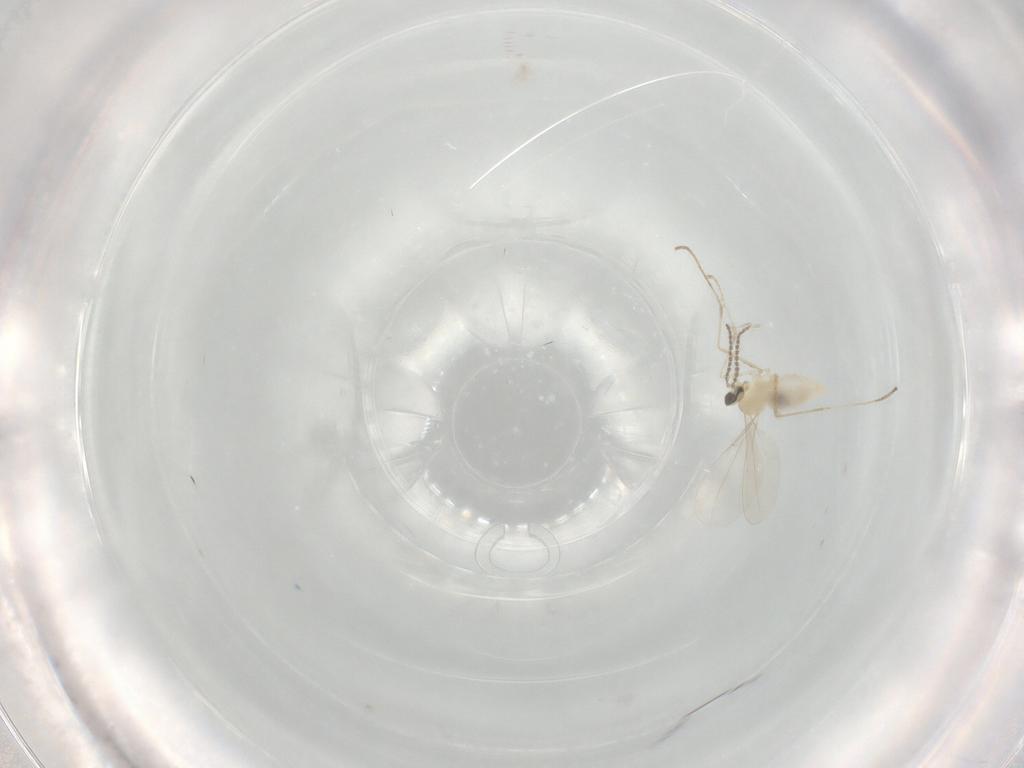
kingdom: Animalia
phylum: Arthropoda
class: Insecta
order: Diptera
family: Cecidomyiidae
